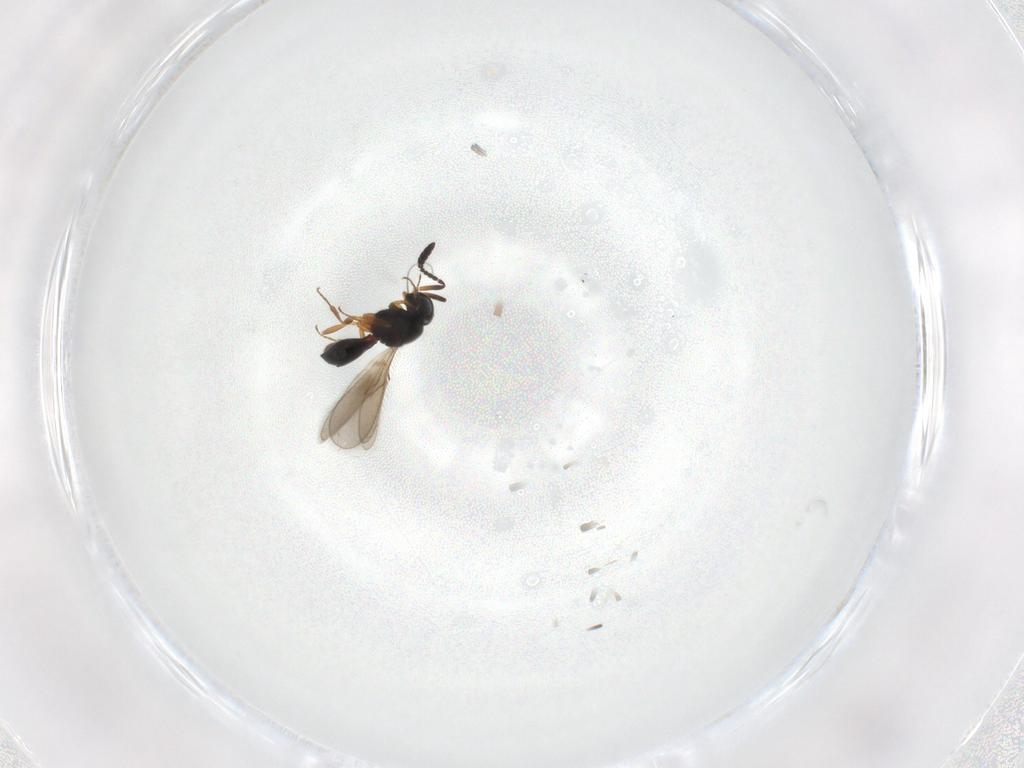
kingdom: Animalia
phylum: Arthropoda
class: Insecta
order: Hymenoptera
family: Scelionidae
